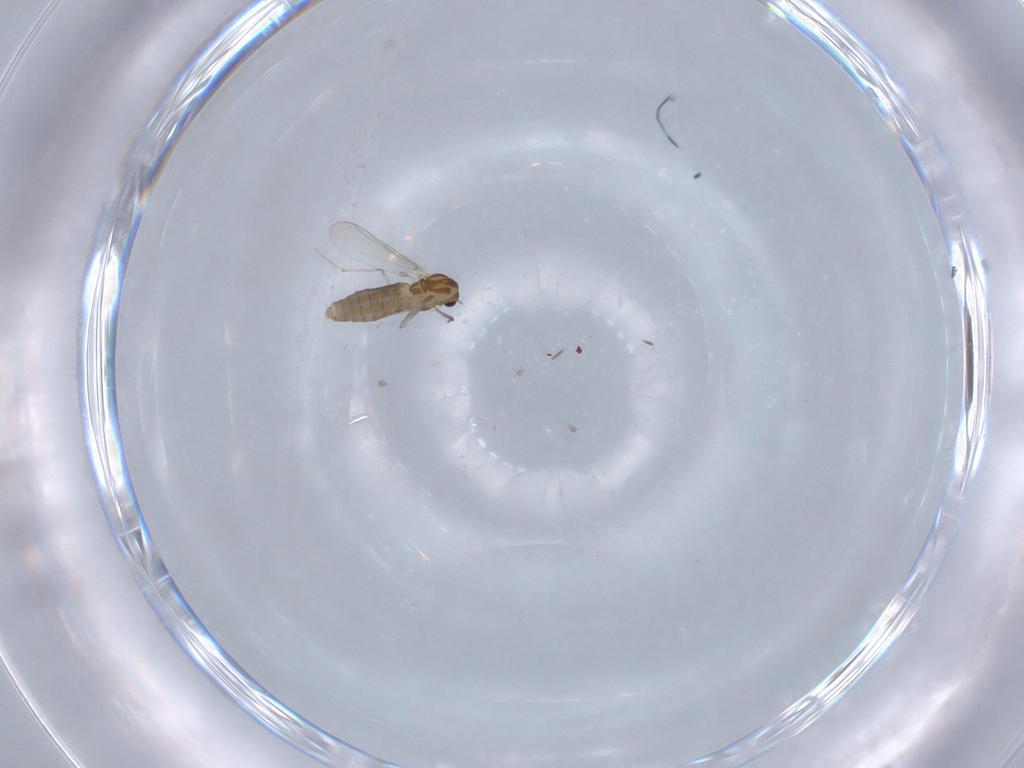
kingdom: Animalia
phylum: Arthropoda
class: Insecta
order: Diptera
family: Chironomidae
